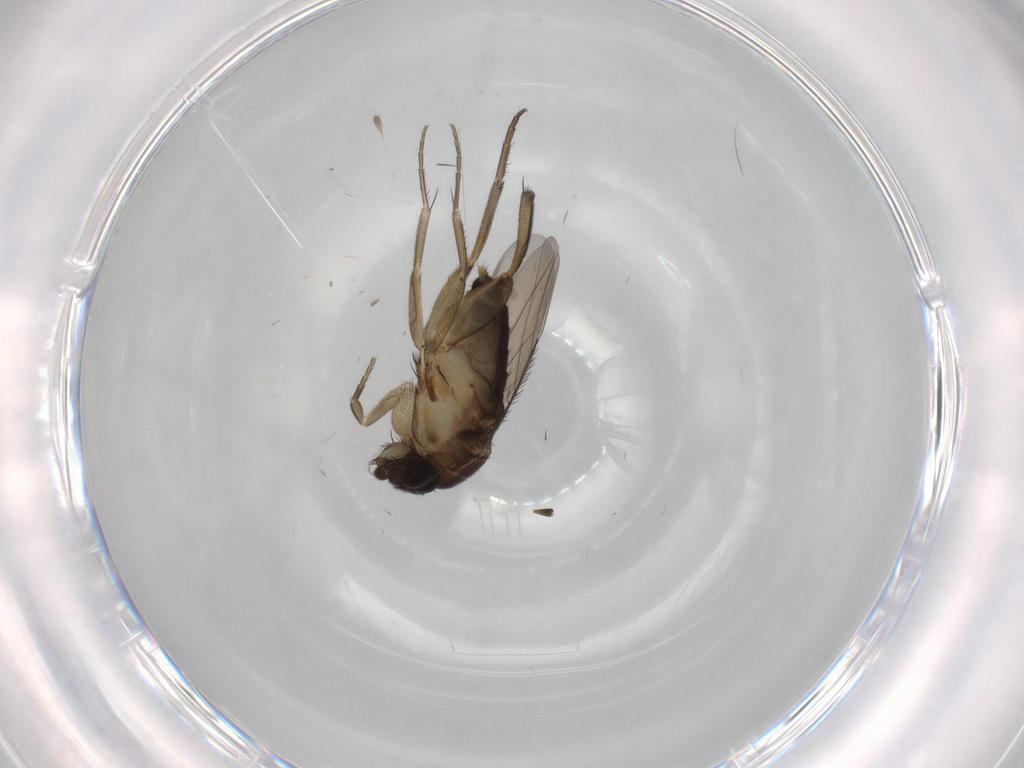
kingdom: Animalia
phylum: Arthropoda
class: Insecta
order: Diptera
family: Phoridae
